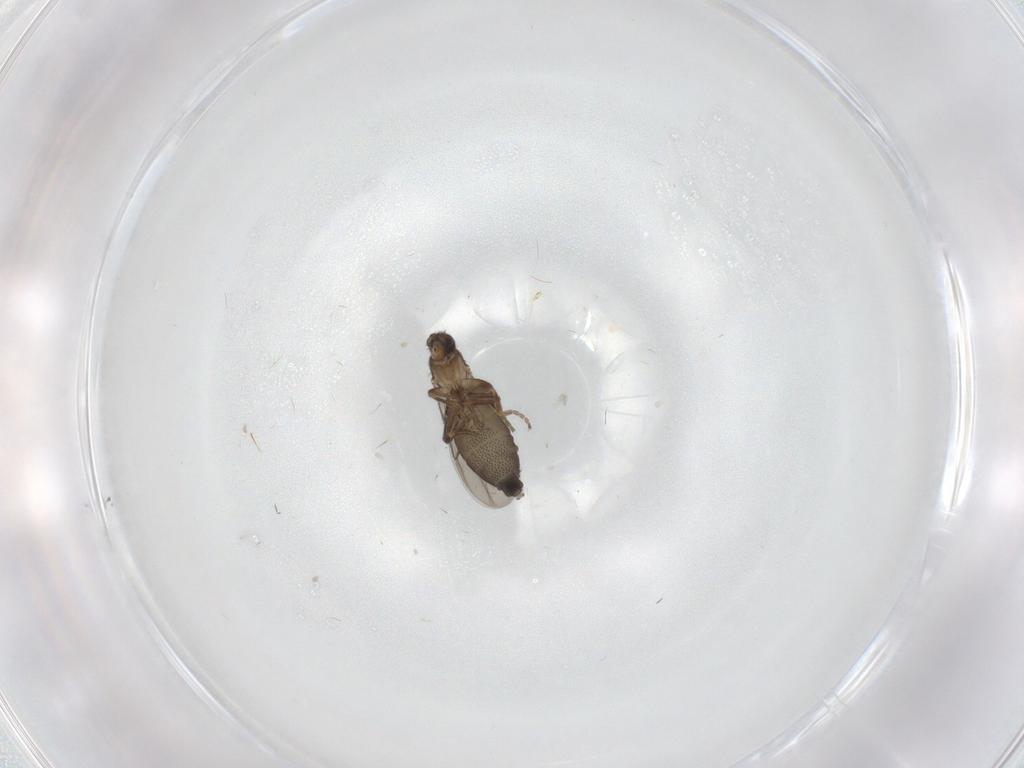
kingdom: Animalia
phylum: Arthropoda
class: Insecta
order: Diptera
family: Phoridae
